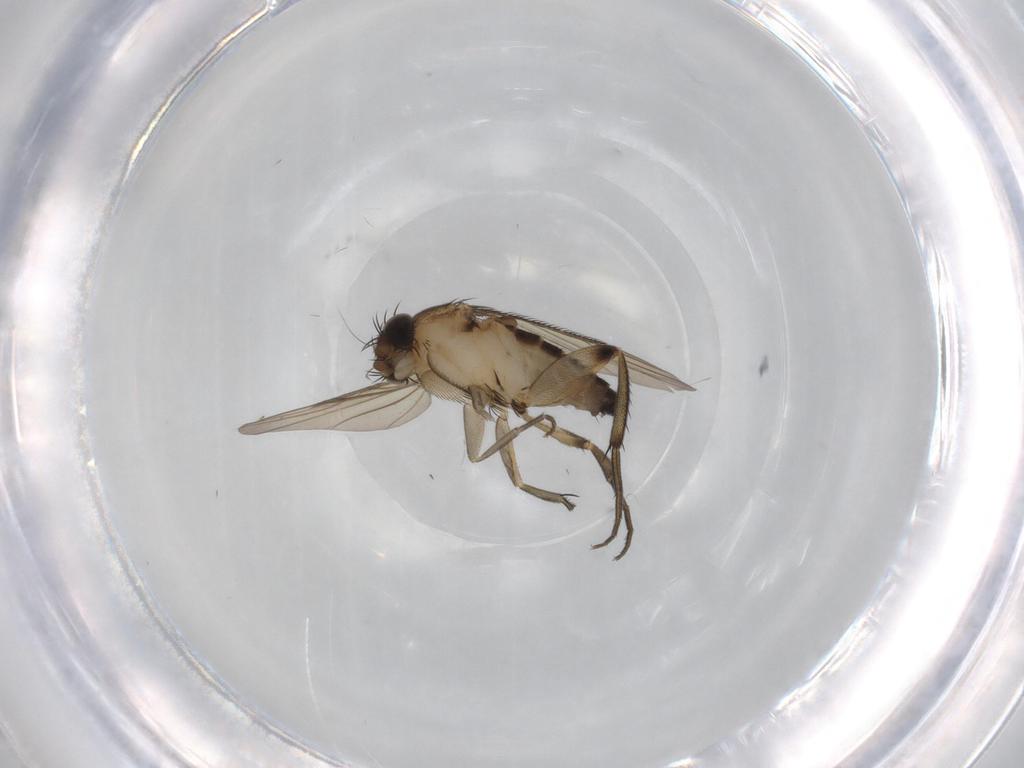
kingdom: Animalia
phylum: Arthropoda
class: Insecta
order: Diptera
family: Phoridae
